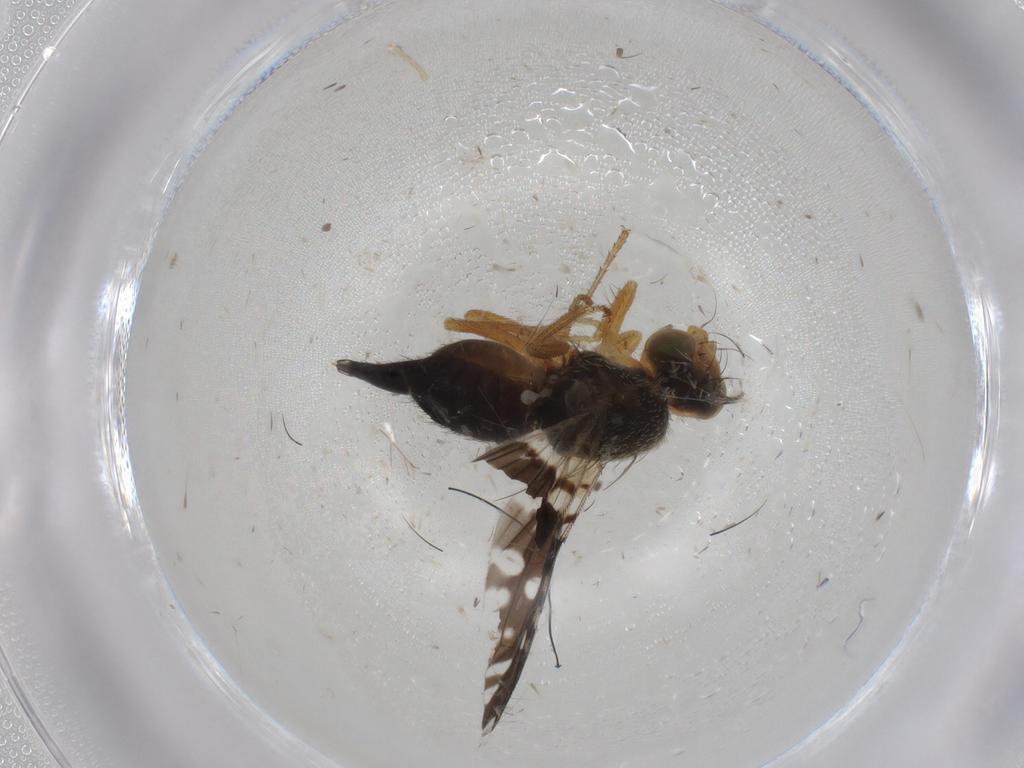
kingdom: Animalia
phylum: Arthropoda
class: Insecta
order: Diptera
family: Tephritidae
